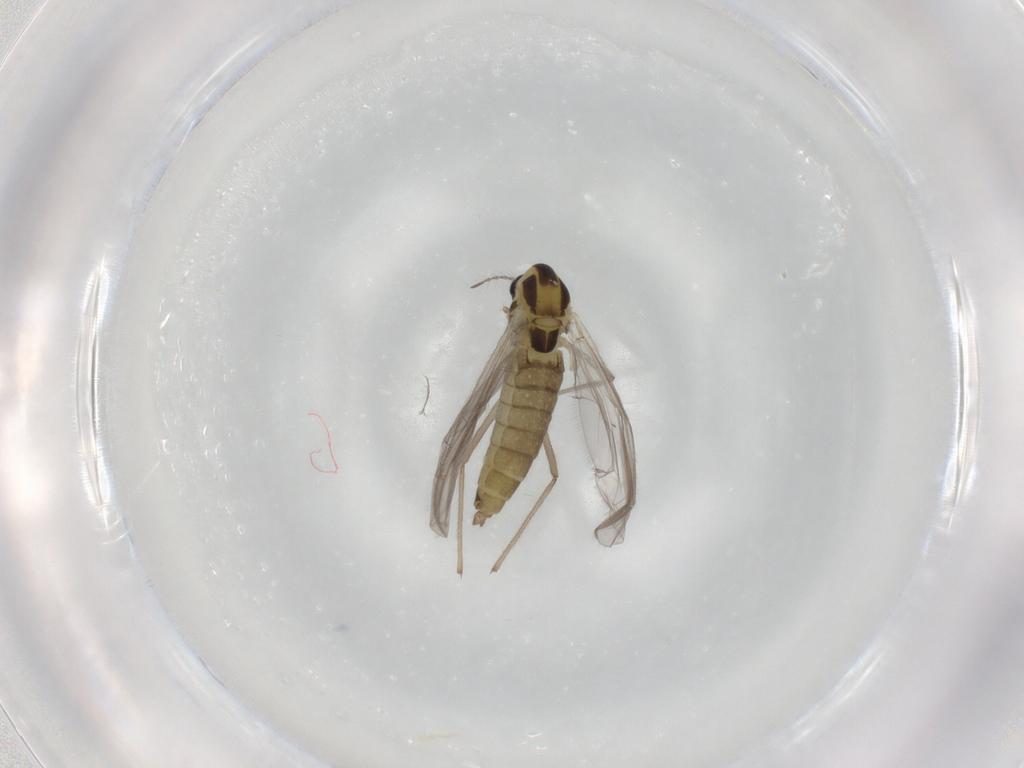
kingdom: Animalia
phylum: Arthropoda
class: Insecta
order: Diptera
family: Chironomidae
